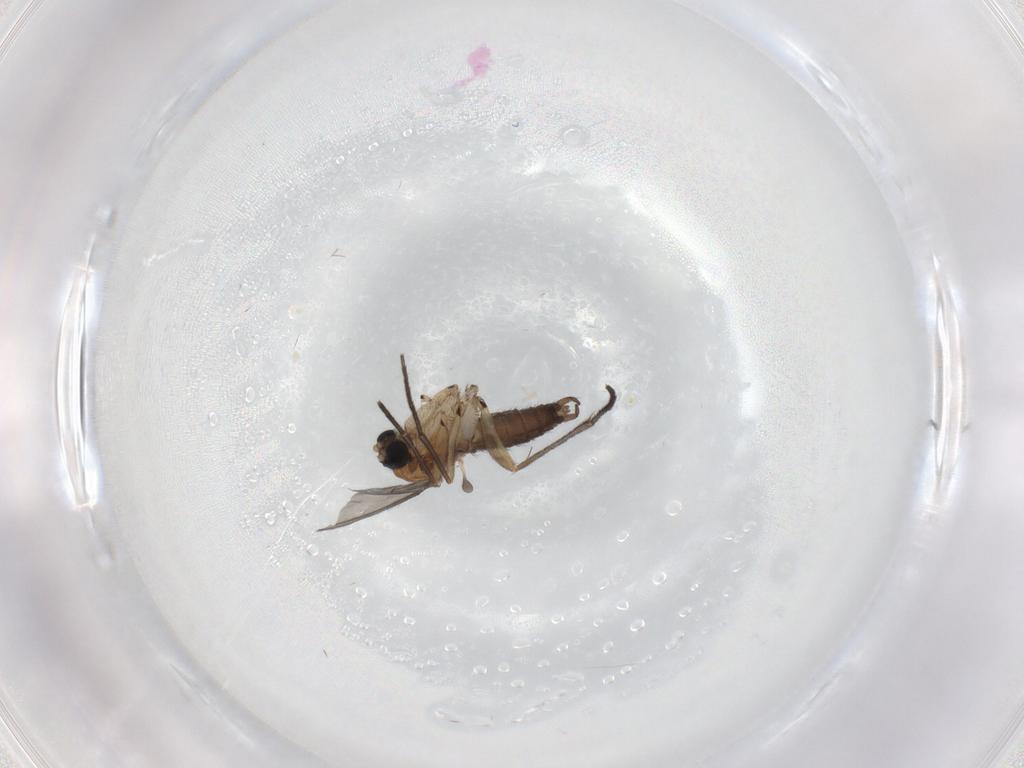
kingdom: Animalia
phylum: Arthropoda
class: Insecta
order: Diptera
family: Sciaridae
